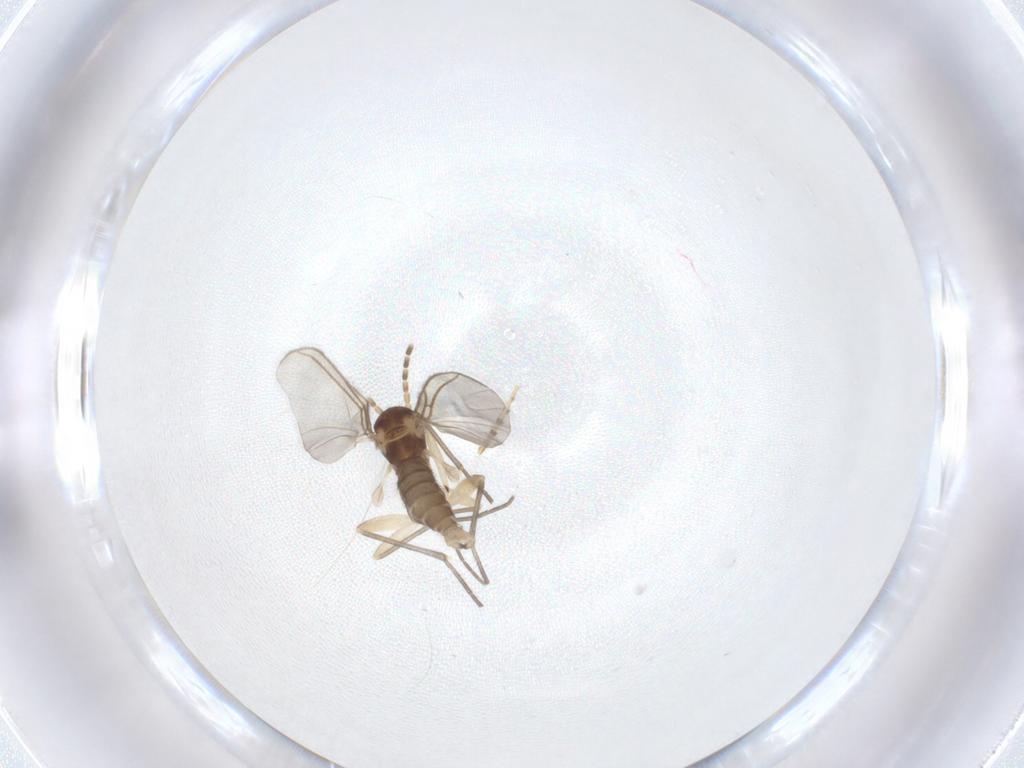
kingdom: Animalia
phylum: Arthropoda
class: Insecta
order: Diptera
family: Sciaridae
